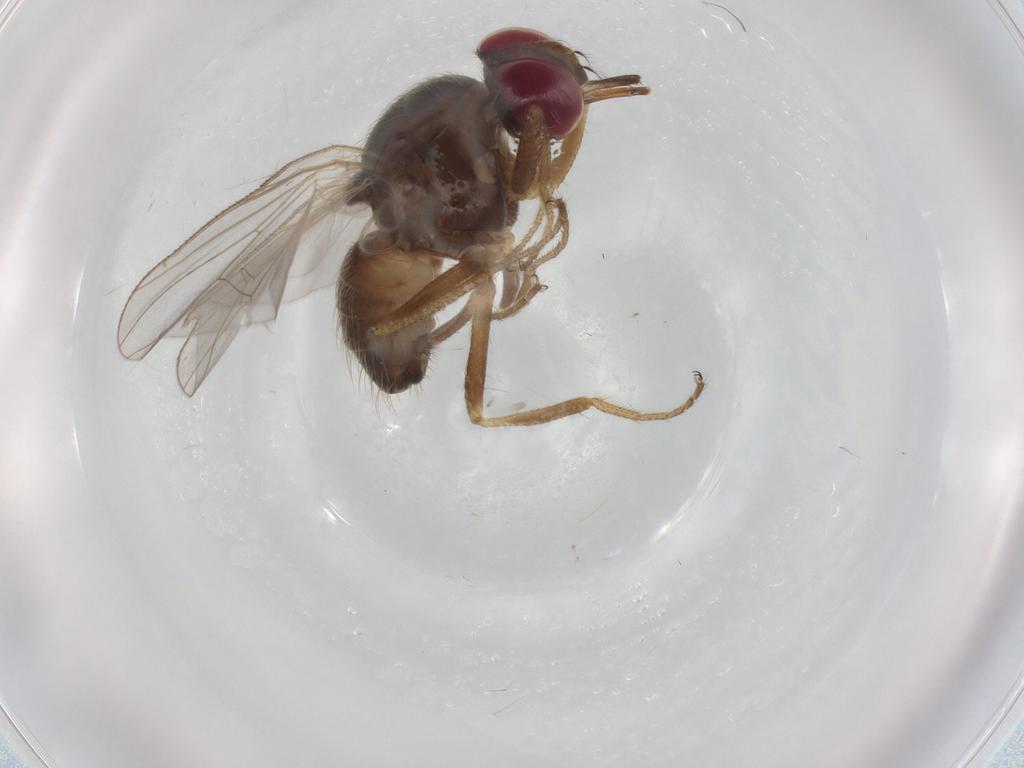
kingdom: Animalia
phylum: Arthropoda
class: Insecta
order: Diptera
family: Muscidae
